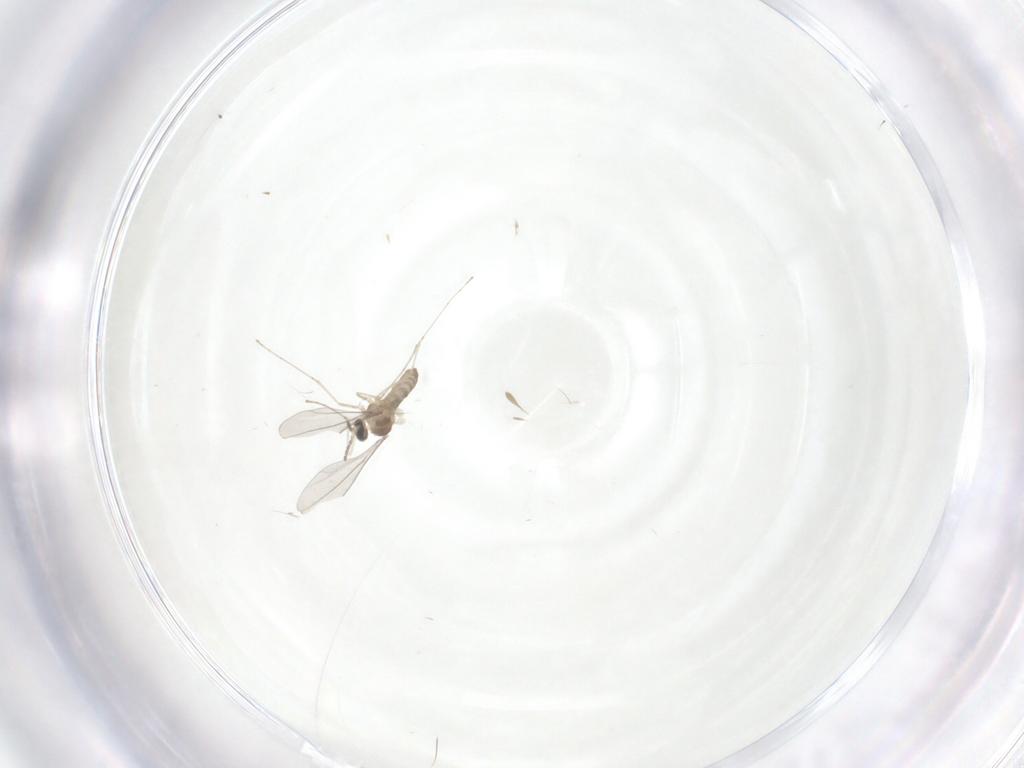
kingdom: Animalia
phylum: Arthropoda
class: Insecta
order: Diptera
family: Cecidomyiidae
